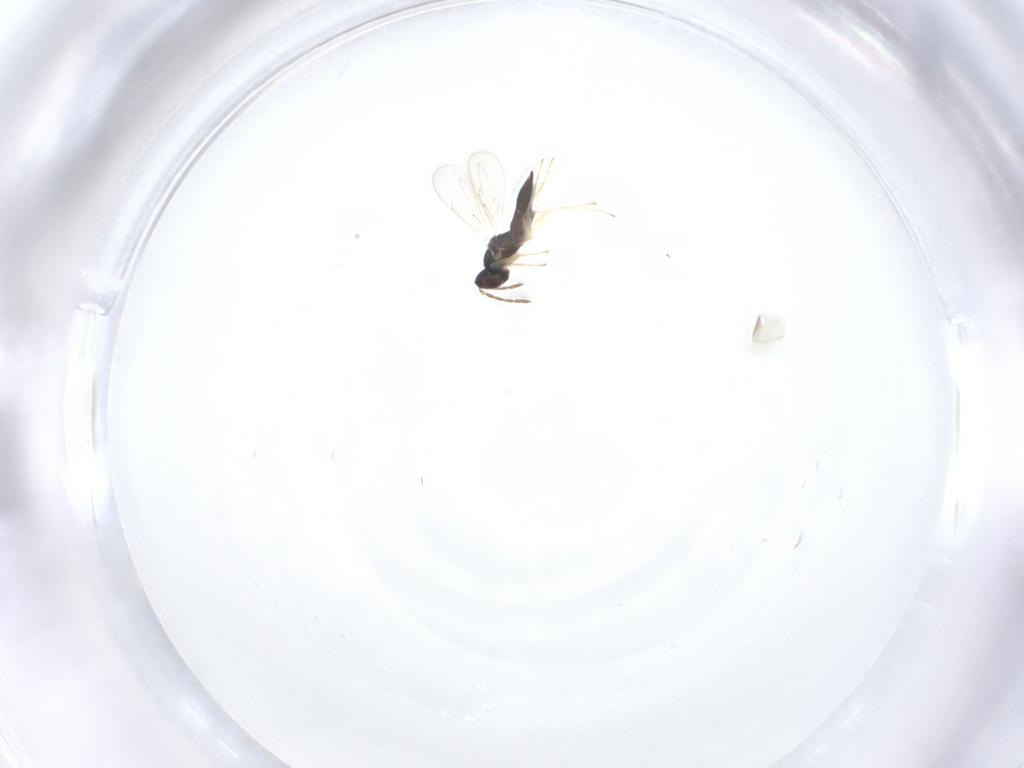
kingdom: Animalia
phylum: Arthropoda
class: Insecta
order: Hymenoptera
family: Eulophidae
